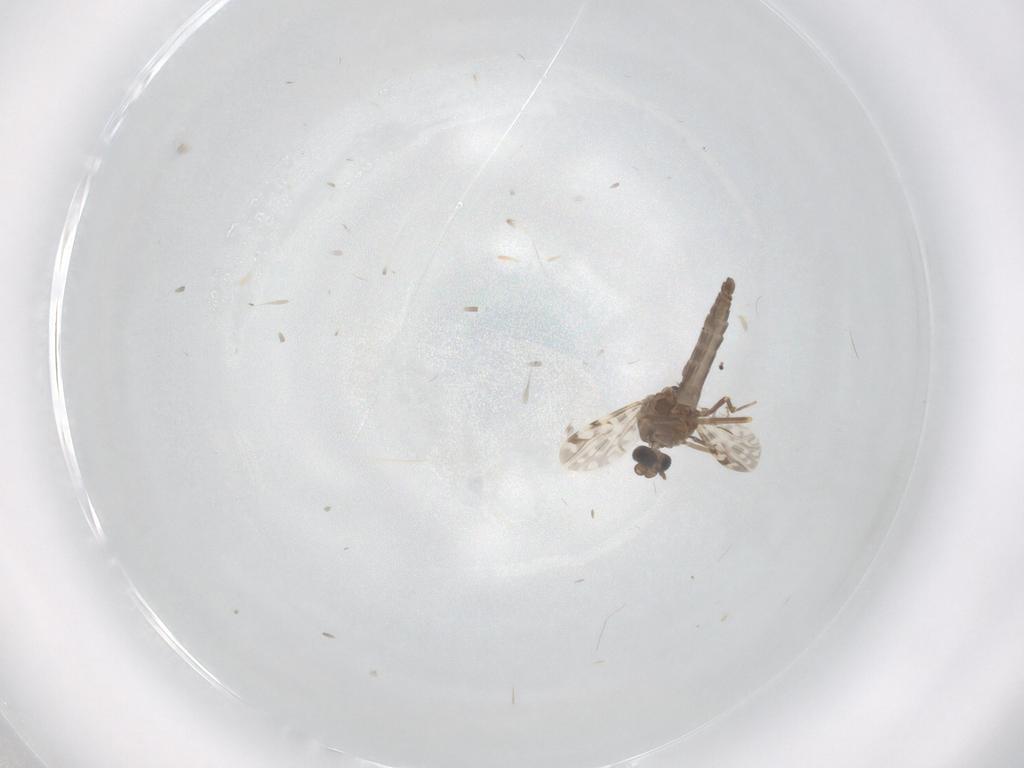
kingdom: Animalia
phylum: Arthropoda
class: Insecta
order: Diptera
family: Ceratopogonidae
